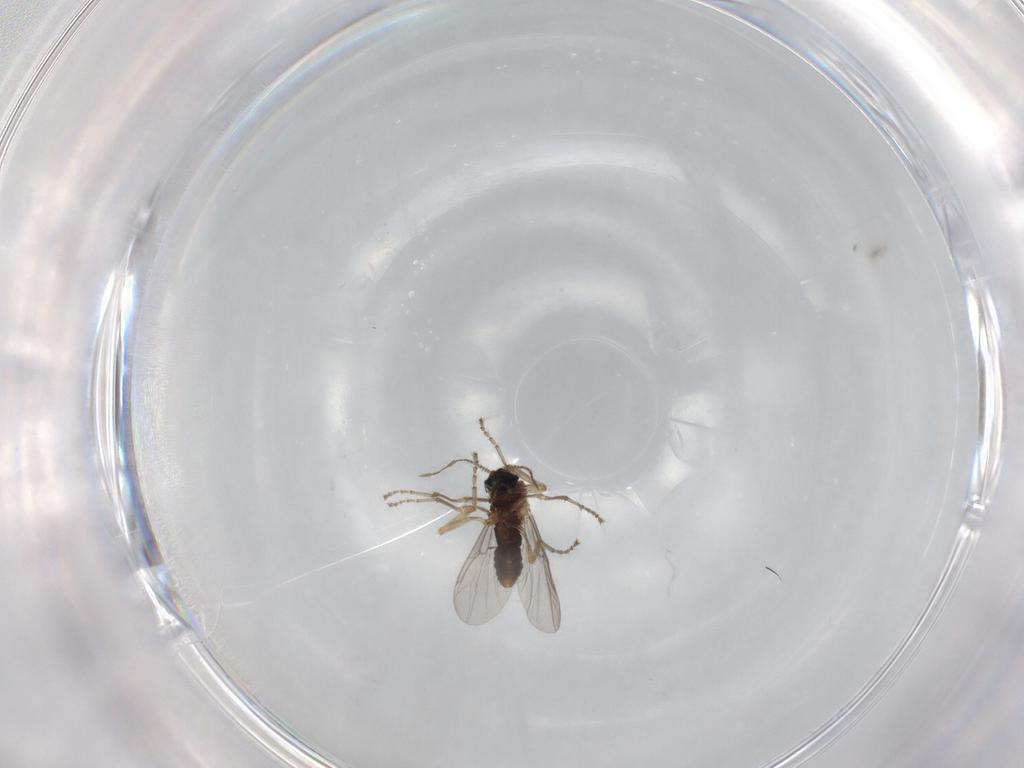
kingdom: Animalia
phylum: Arthropoda
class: Insecta
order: Diptera
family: Ceratopogonidae
